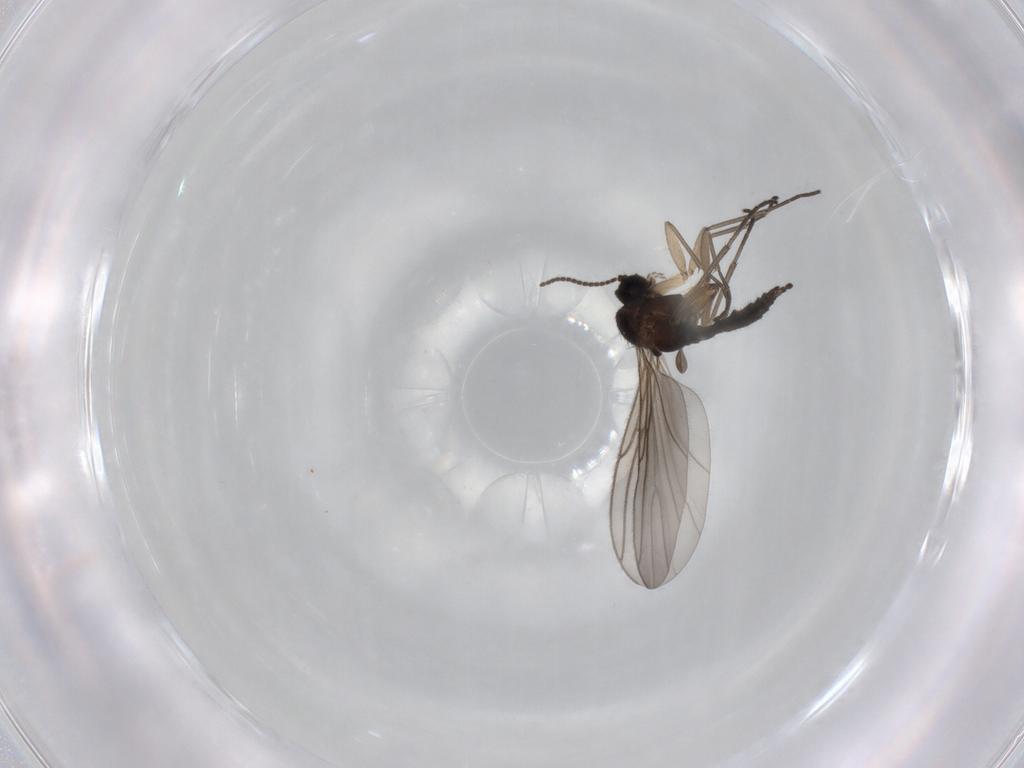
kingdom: Animalia
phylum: Arthropoda
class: Insecta
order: Diptera
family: Sciaridae
